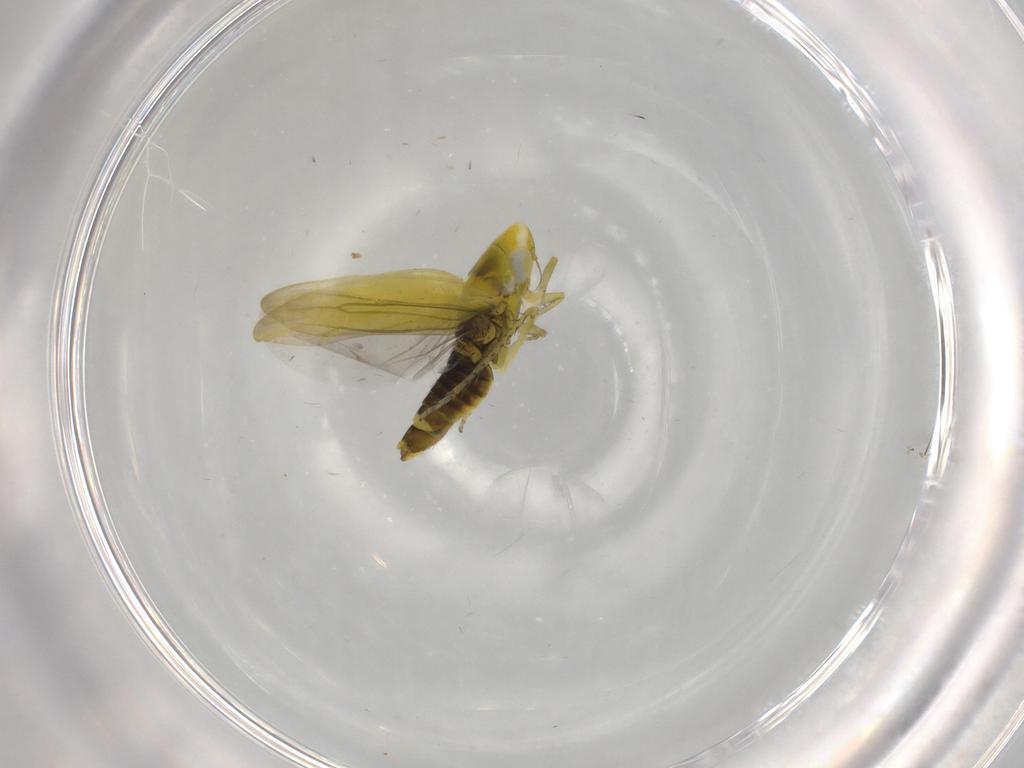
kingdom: Animalia
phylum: Arthropoda
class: Insecta
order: Hemiptera
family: Cicadellidae
